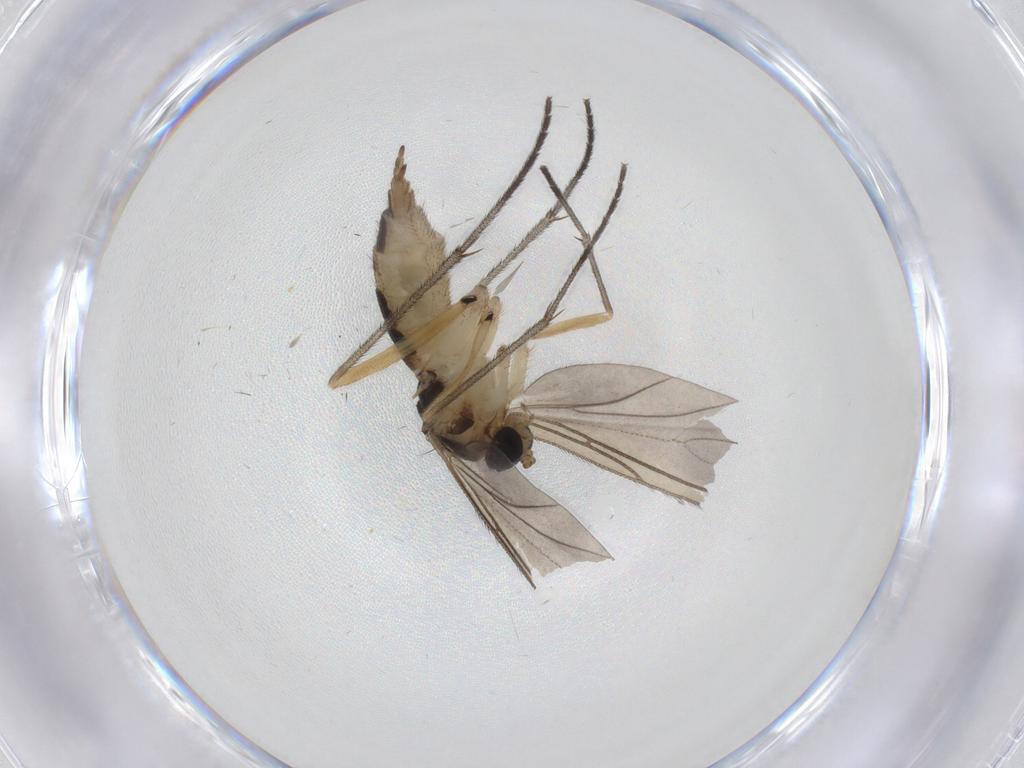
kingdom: Animalia
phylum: Arthropoda
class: Insecta
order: Diptera
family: Sciaridae
